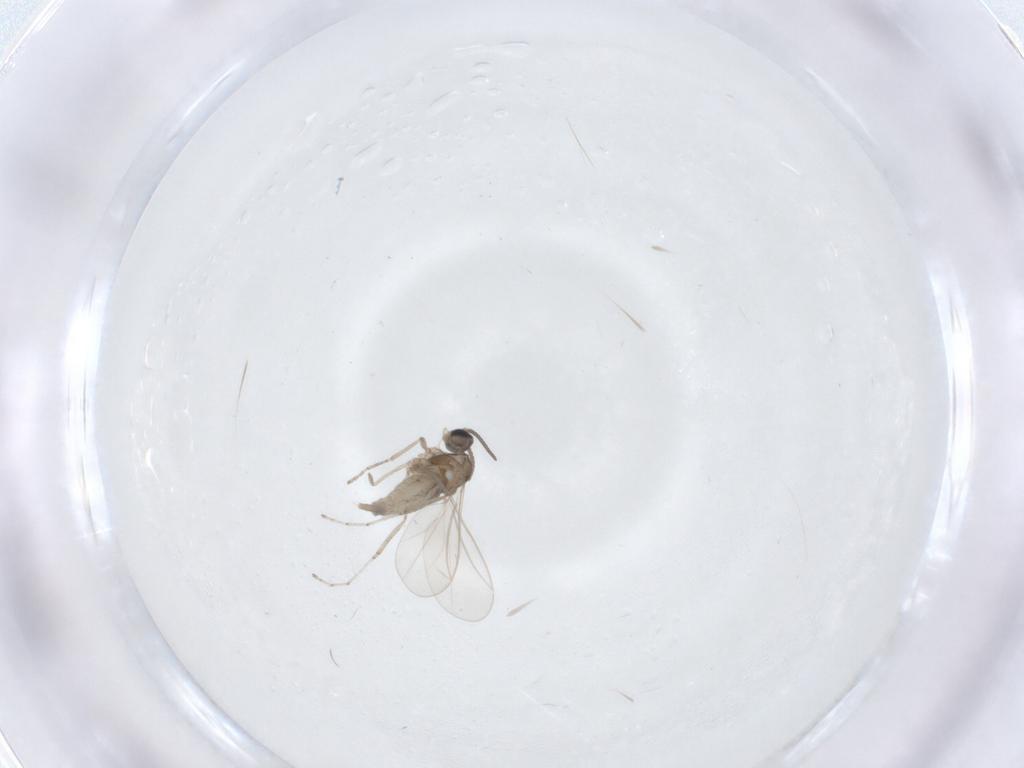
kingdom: Animalia
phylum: Arthropoda
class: Insecta
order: Diptera
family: Cecidomyiidae
